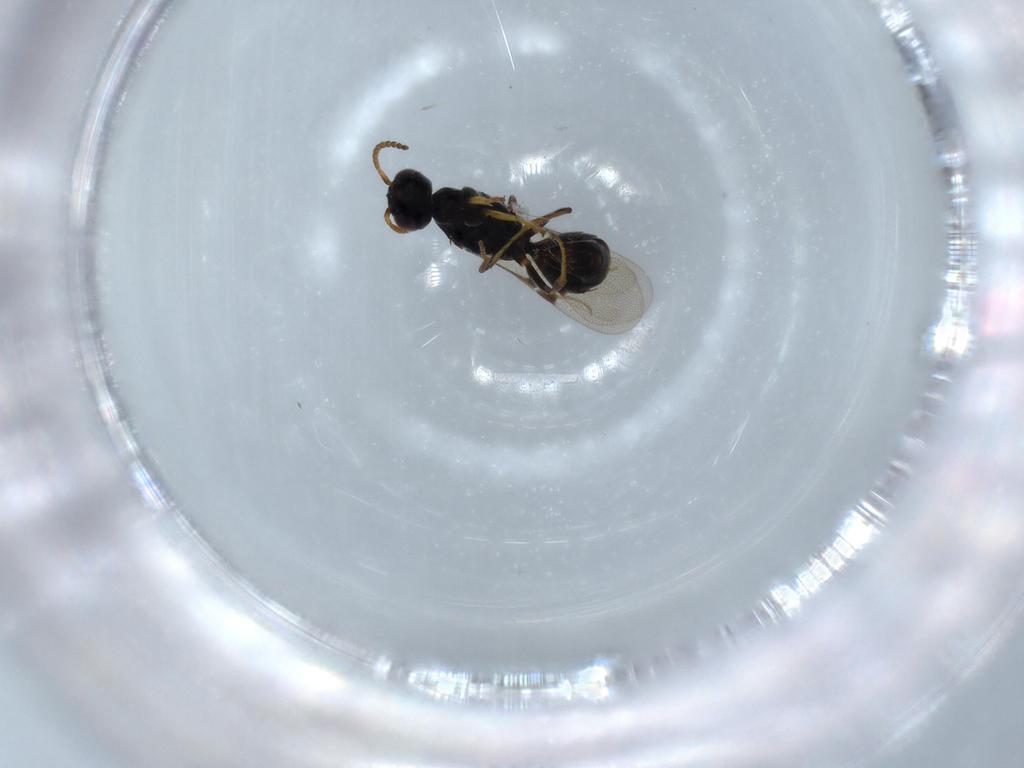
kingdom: Animalia
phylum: Arthropoda
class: Insecta
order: Hymenoptera
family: Bethylidae
